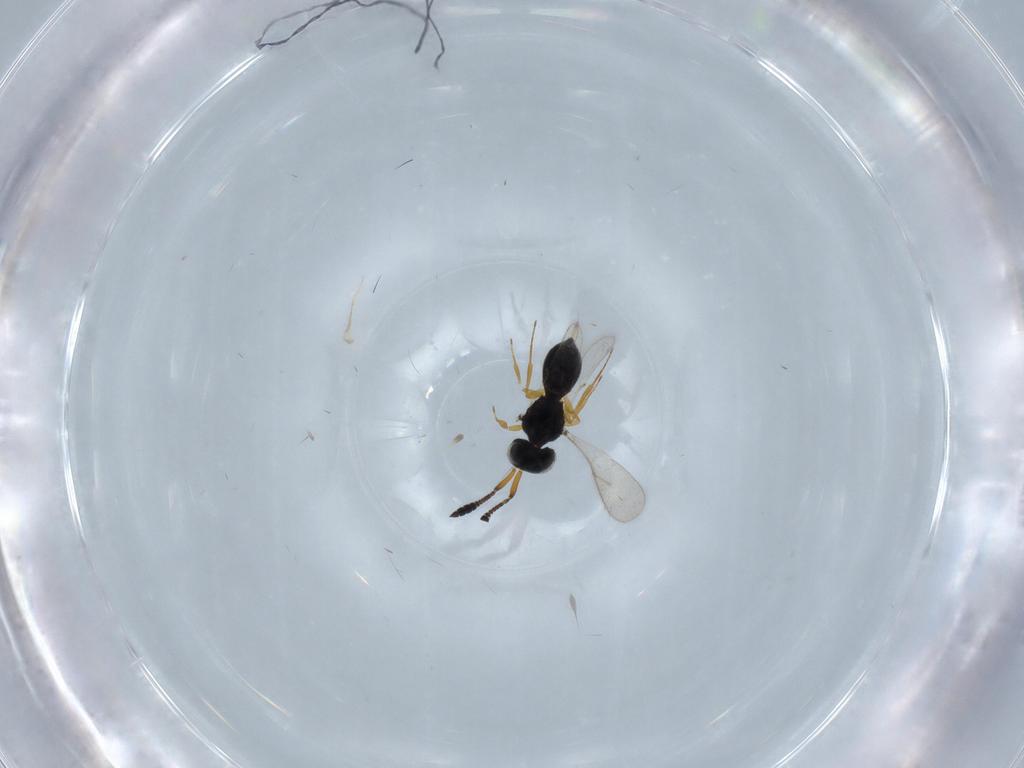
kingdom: Animalia
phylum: Arthropoda
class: Insecta
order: Hymenoptera
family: Scelionidae
